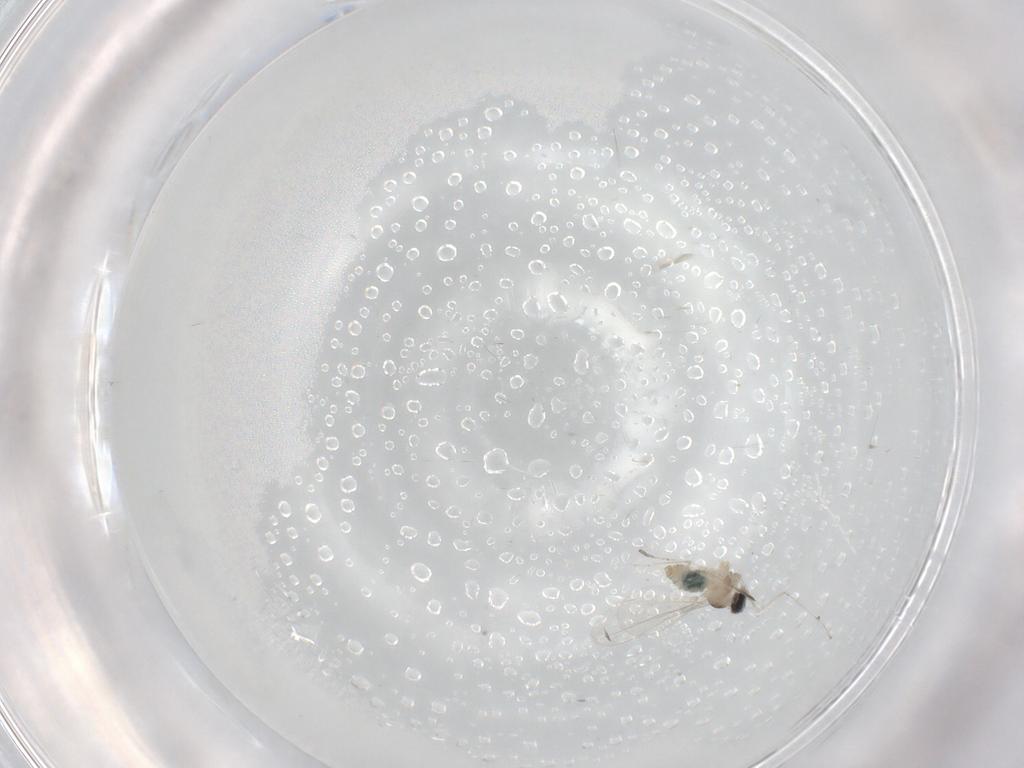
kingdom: Animalia
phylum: Arthropoda
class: Insecta
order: Diptera
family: Cecidomyiidae
